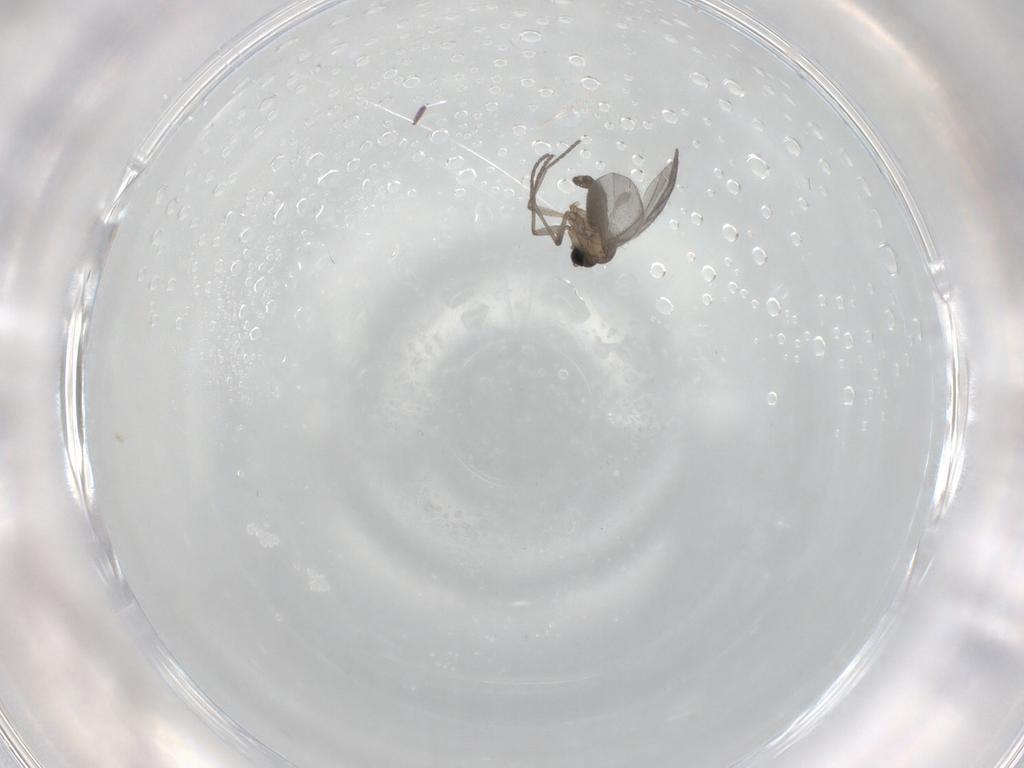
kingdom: Animalia
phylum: Arthropoda
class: Insecta
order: Diptera
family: Sciaridae
